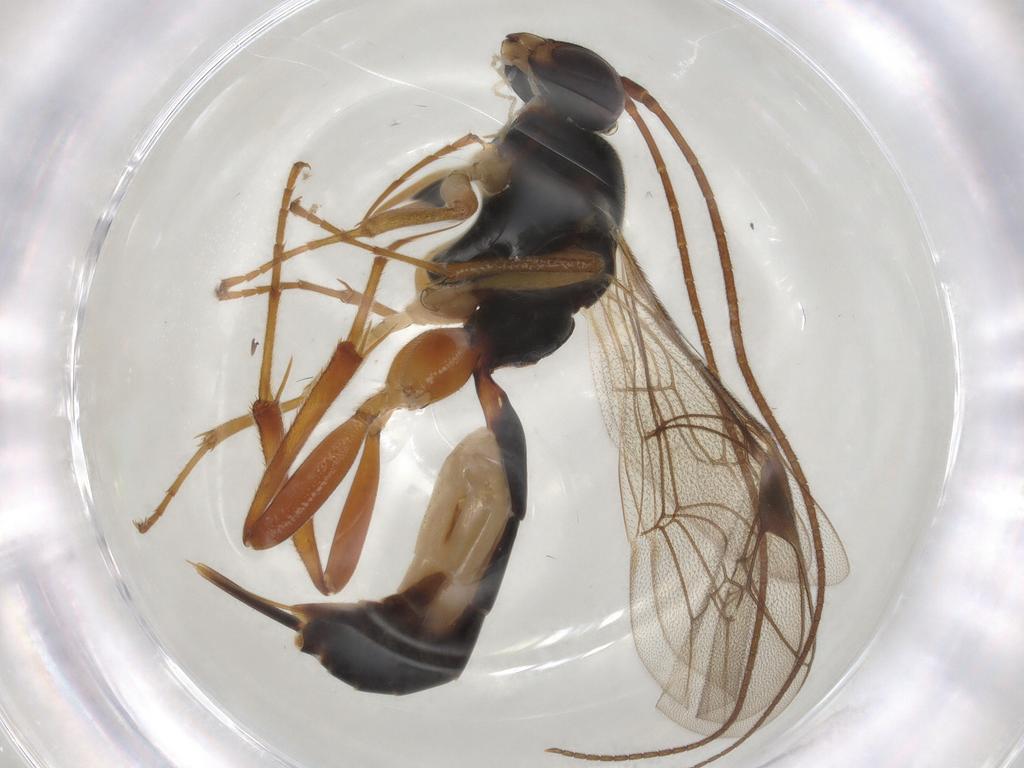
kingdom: Animalia
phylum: Arthropoda
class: Insecta
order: Hymenoptera
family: Ichneumonidae
